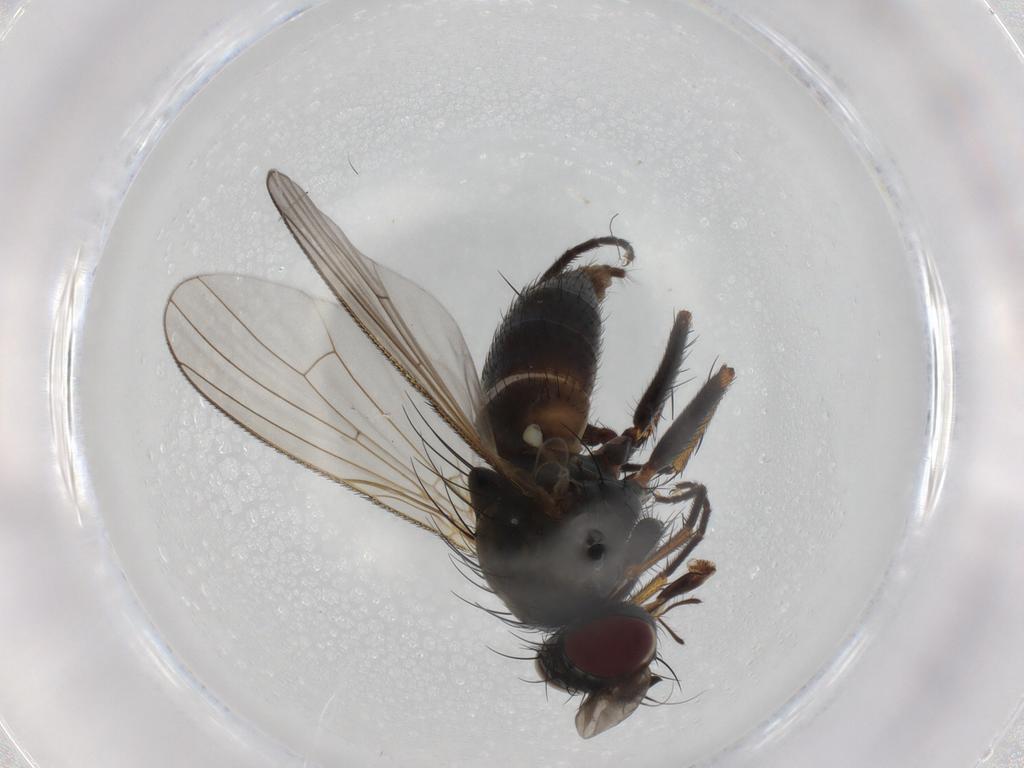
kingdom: Animalia
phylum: Arthropoda
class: Insecta
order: Diptera
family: Muscidae
